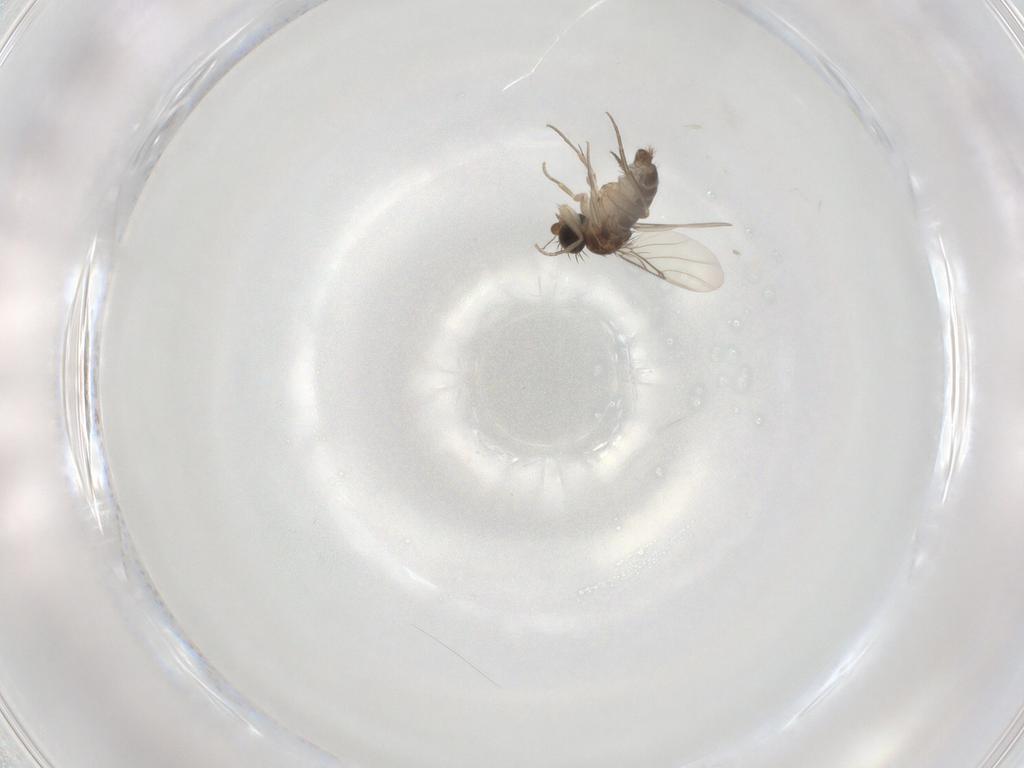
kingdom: Animalia
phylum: Arthropoda
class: Insecta
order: Diptera
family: Phoridae
